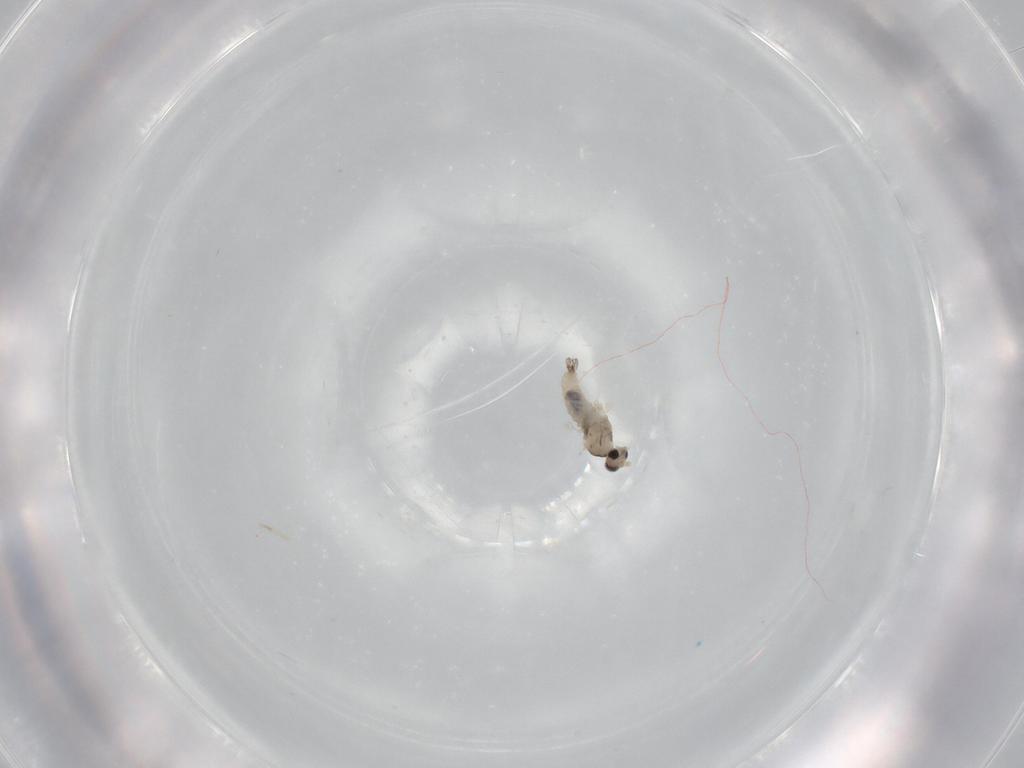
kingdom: Animalia
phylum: Arthropoda
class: Insecta
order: Diptera
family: Cecidomyiidae
